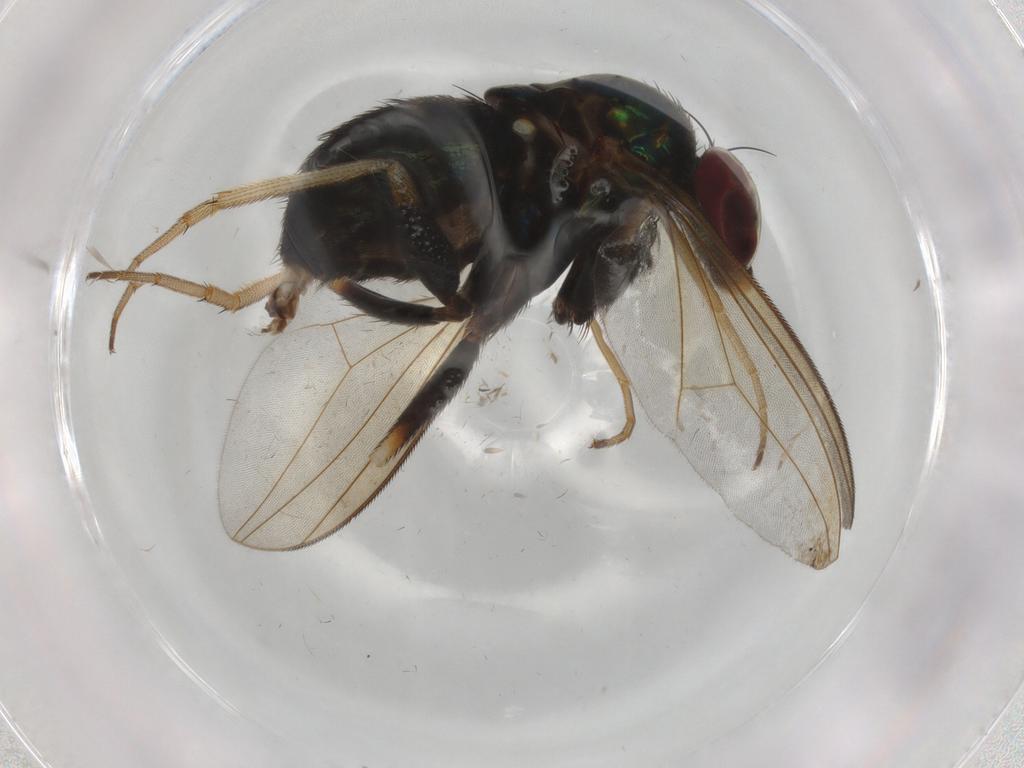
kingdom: Animalia
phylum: Arthropoda
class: Insecta
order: Diptera
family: Dolichopodidae
